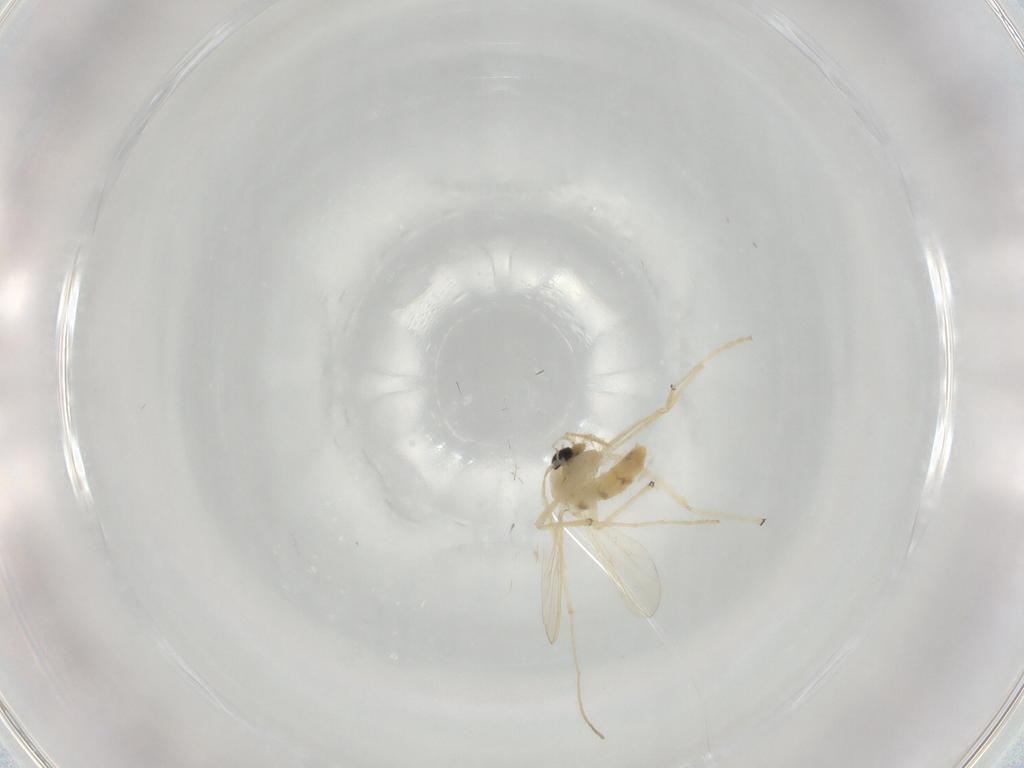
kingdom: Animalia
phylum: Arthropoda
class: Insecta
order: Diptera
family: Chironomidae
